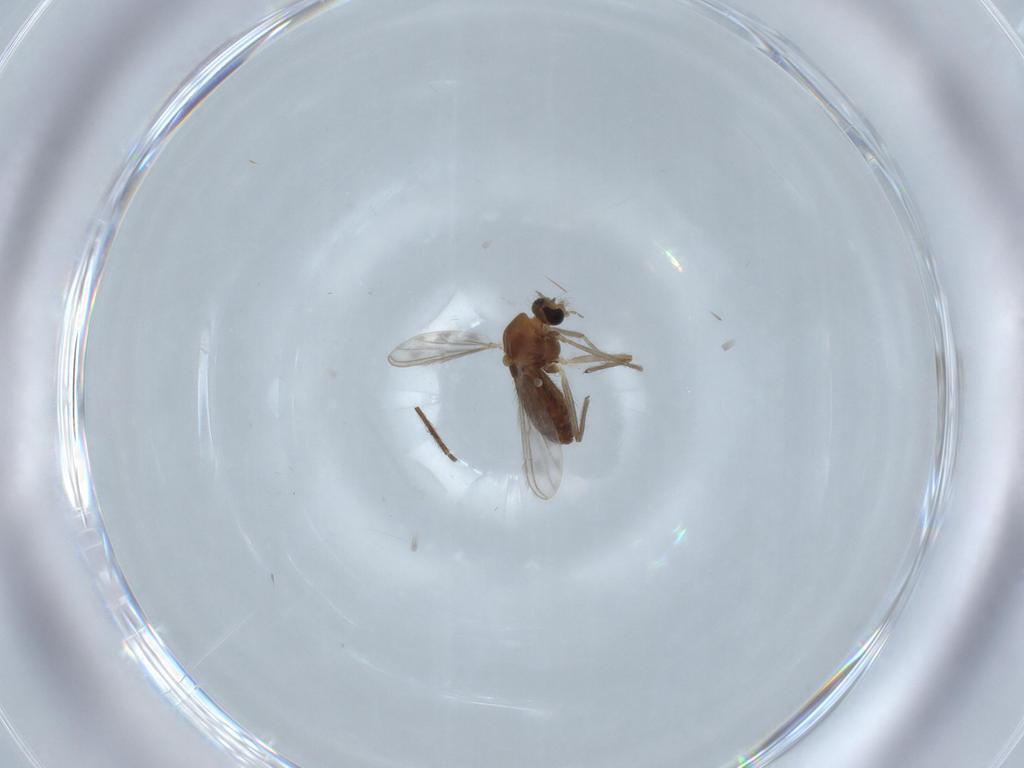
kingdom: Animalia
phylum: Arthropoda
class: Insecta
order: Diptera
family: Chironomidae
